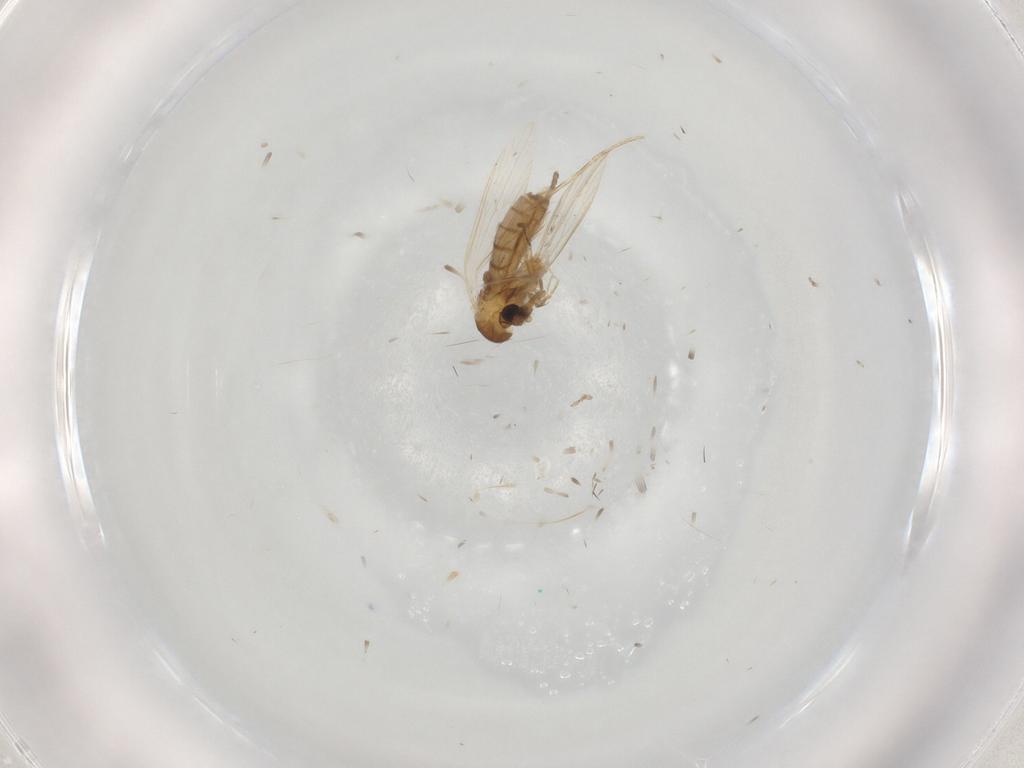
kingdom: Animalia
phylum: Arthropoda
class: Insecta
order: Diptera
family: Psychodidae
